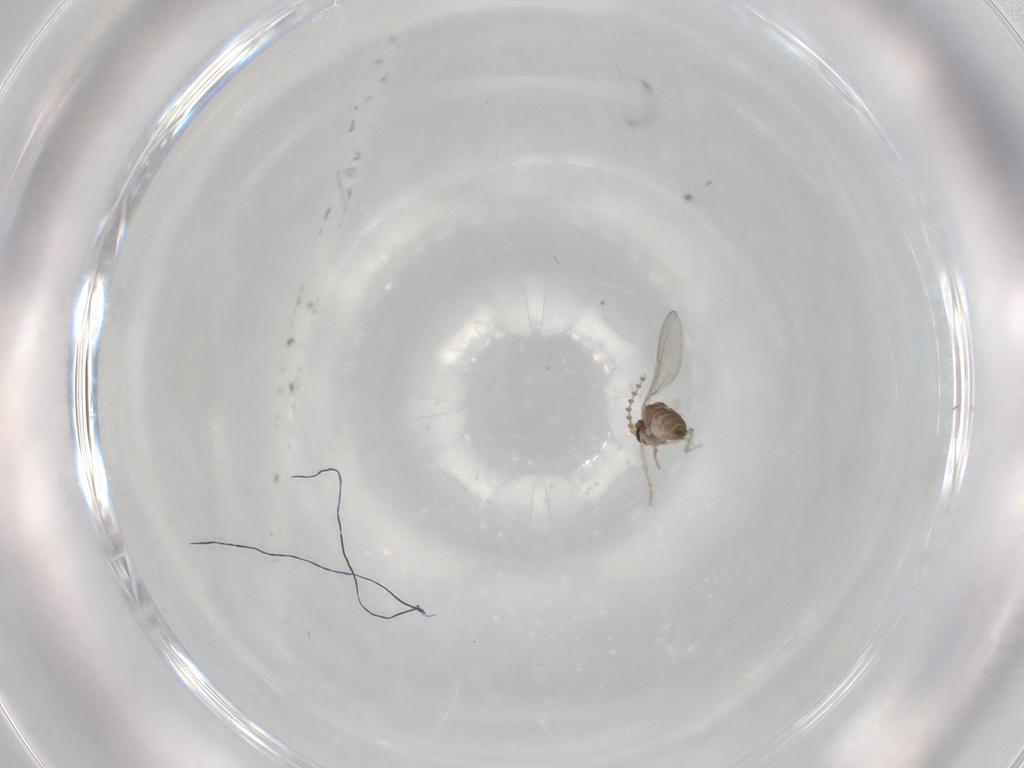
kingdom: Animalia
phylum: Arthropoda
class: Insecta
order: Diptera
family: Cecidomyiidae
